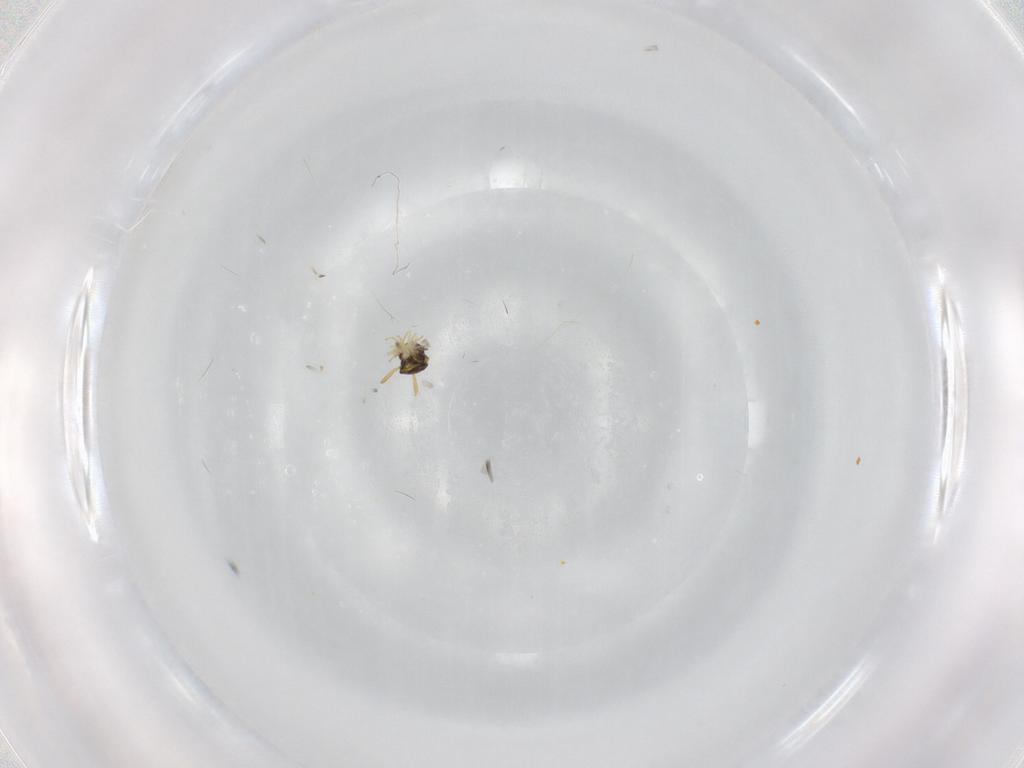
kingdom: Animalia
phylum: Arthropoda
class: Insecta
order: Hymenoptera
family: Aphelinidae
